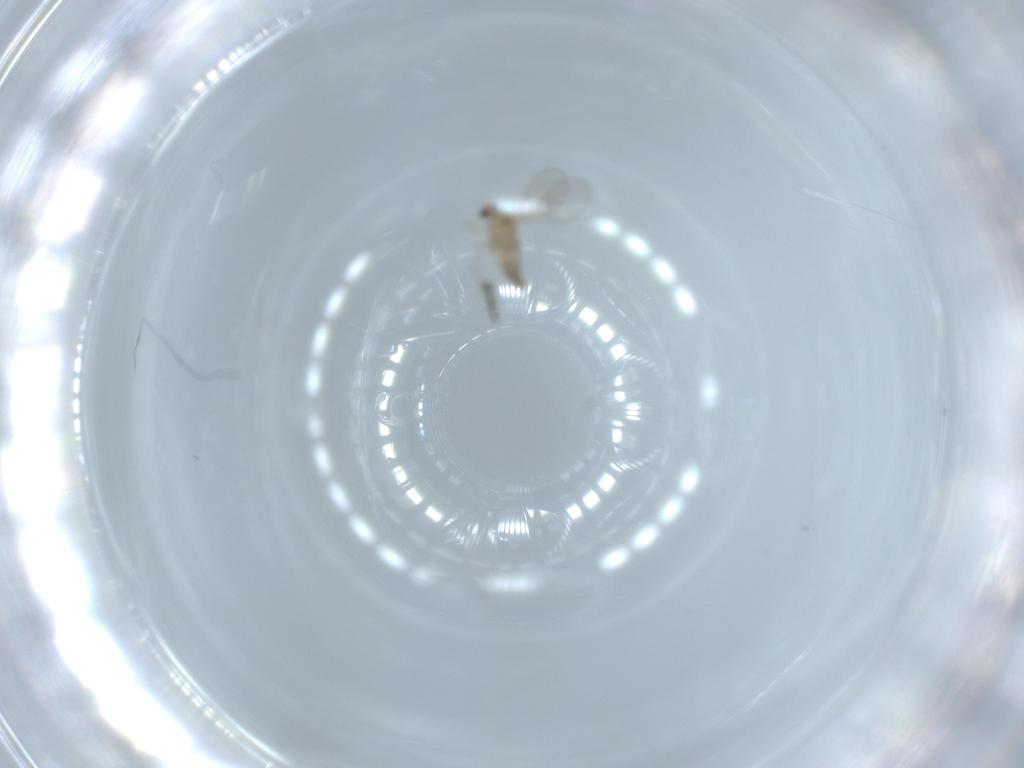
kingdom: Animalia
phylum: Arthropoda
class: Insecta
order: Diptera
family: Cecidomyiidae
